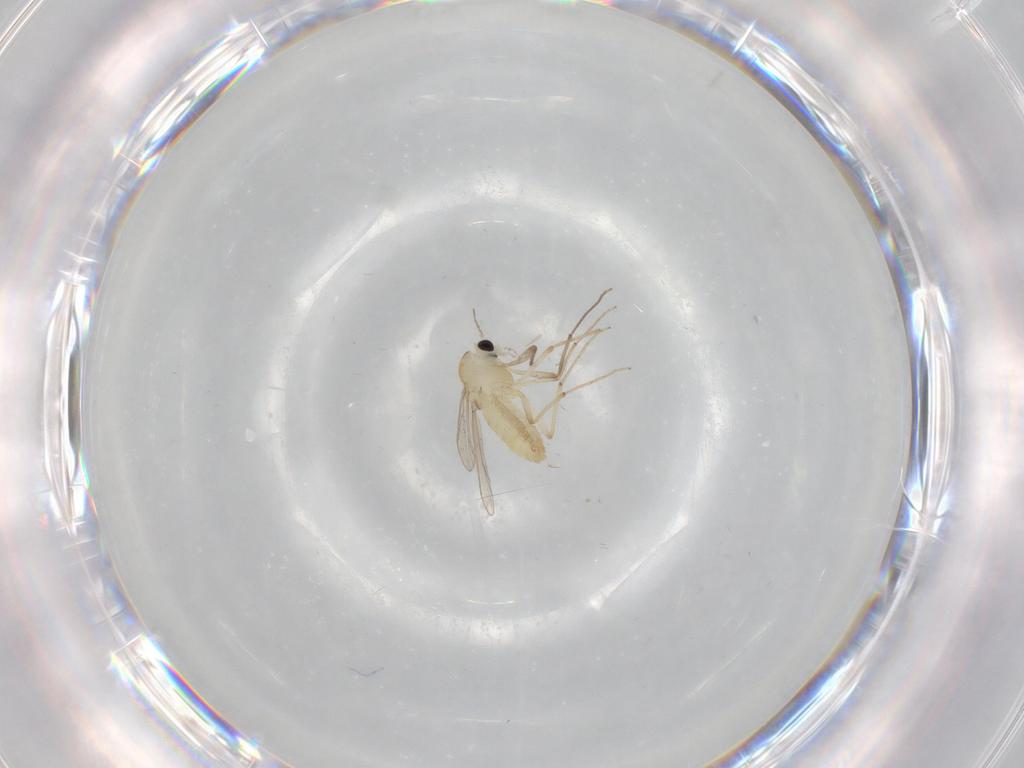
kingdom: Animalia
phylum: Arthropoda
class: Insecta
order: Diptera
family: Chironomidae
